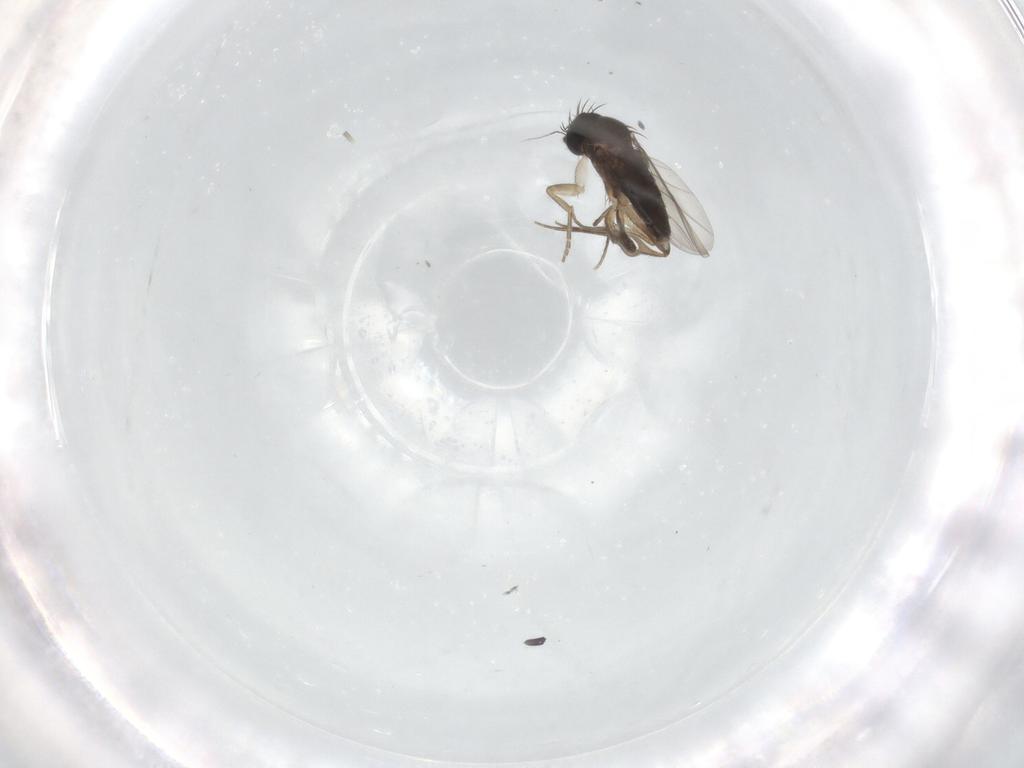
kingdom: Animalia
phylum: Arthropoda
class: Insecta
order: Diptera
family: Phoridae
